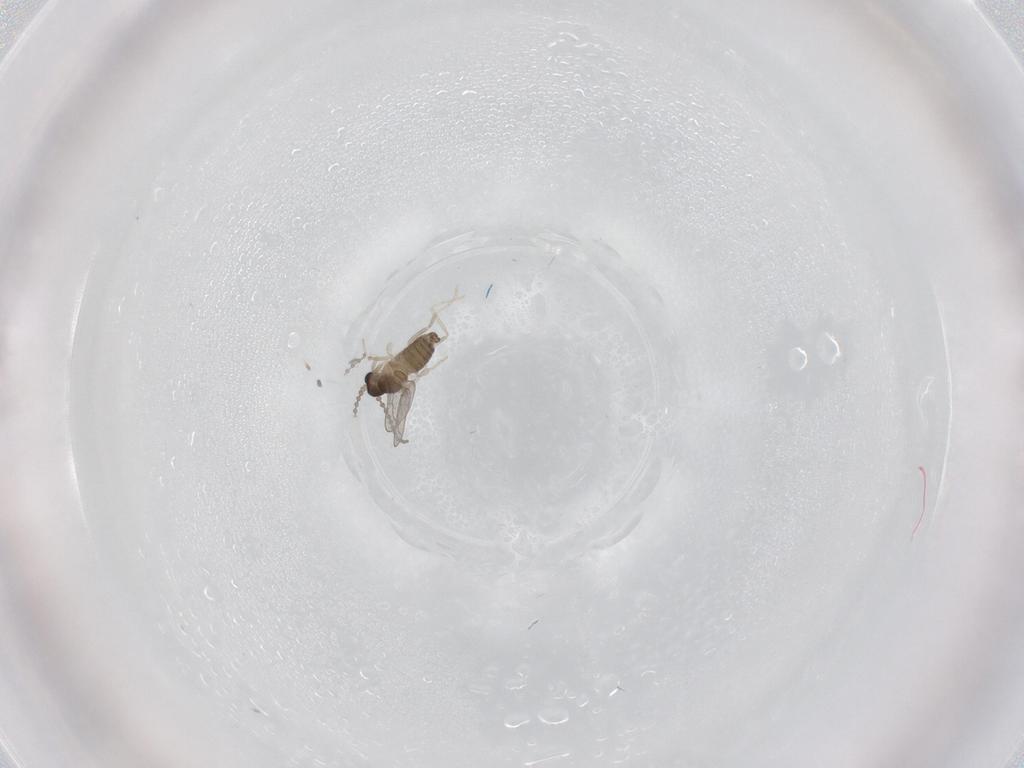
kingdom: Animalia
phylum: Arthropoda
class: Insecta
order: Diptera
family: Cecidomyiidae
